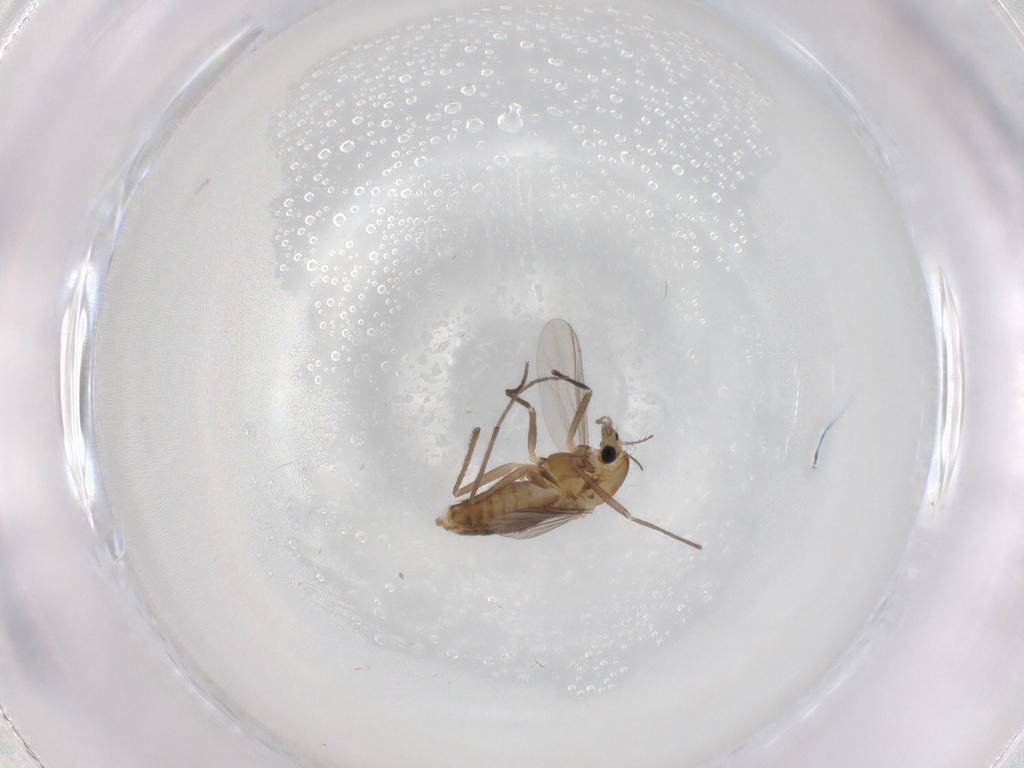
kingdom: Animalia
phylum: Arthropoda
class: Insecta
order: Diptera
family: Chironomidae
